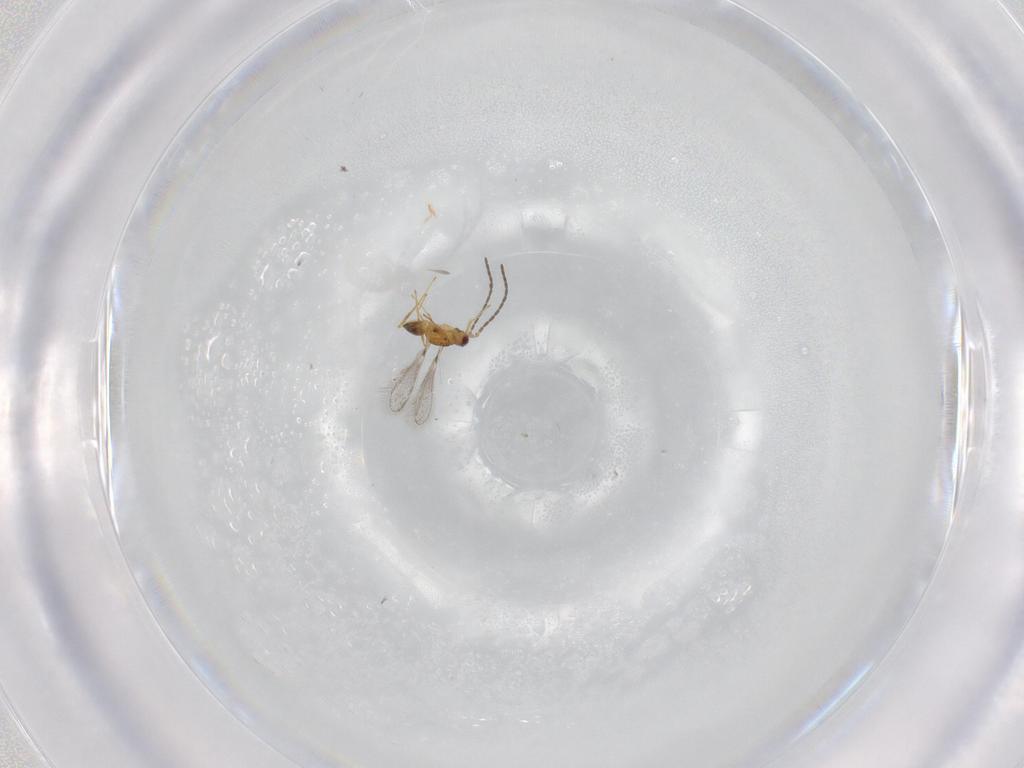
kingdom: Animalia
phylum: Arthropoda
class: Insecta
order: Hymenoptera
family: Mymaridae
